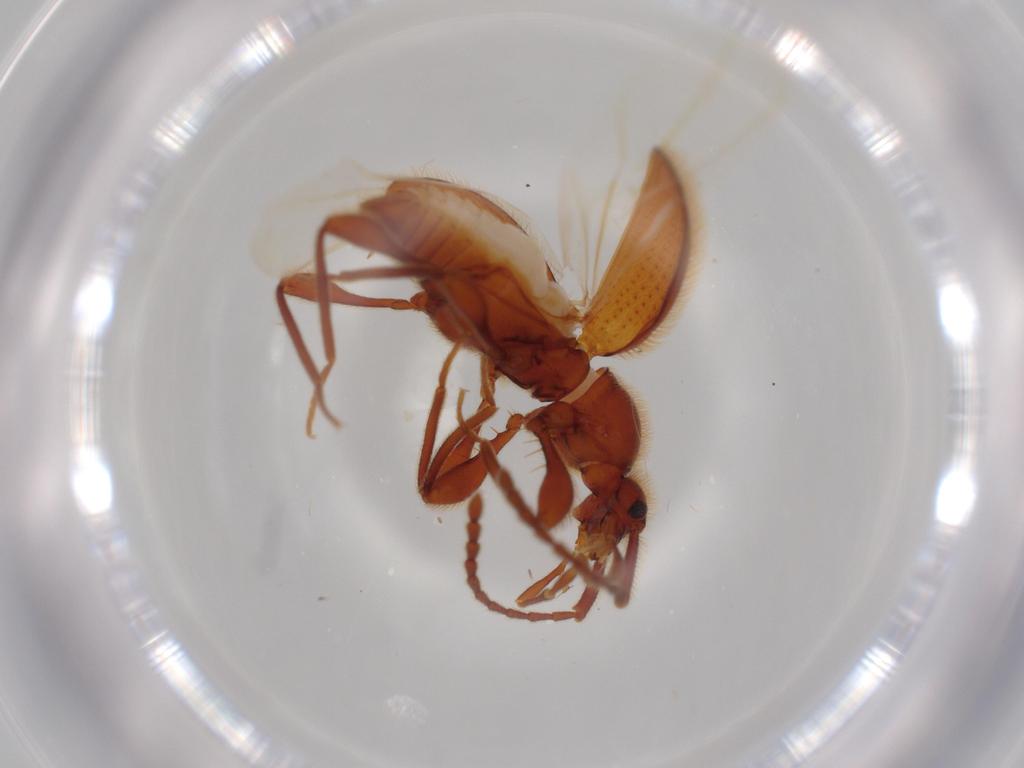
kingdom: Animalia
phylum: Arthropoda
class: Insecta
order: Coleoptera
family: Staphylinidae
